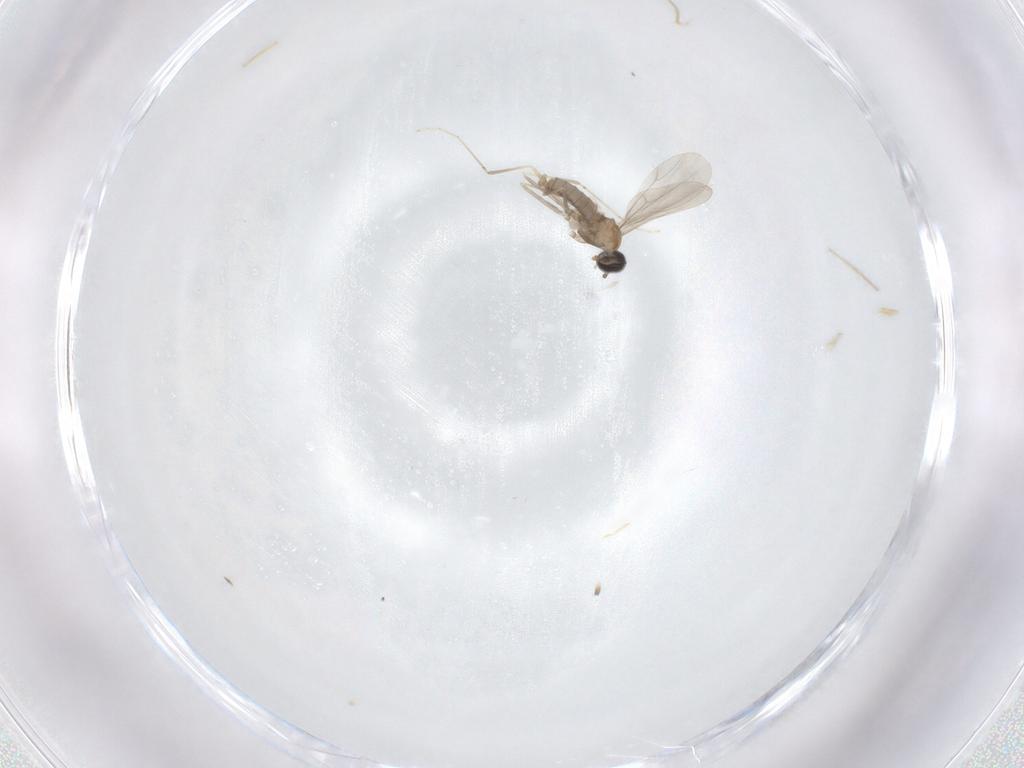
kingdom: Animalia
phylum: Arthropoda
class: Insecta
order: Diptera
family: Cecidomyiidae
